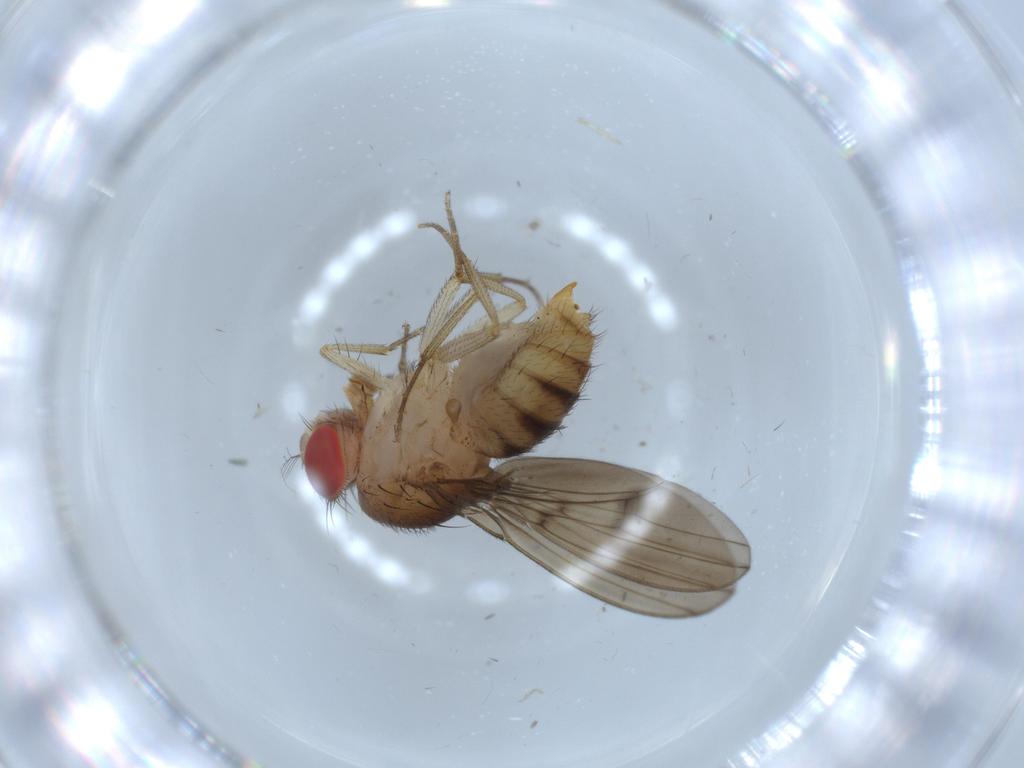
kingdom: Animalia
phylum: Arthropoda
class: Insecta
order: Diptera
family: Drosophilidae
